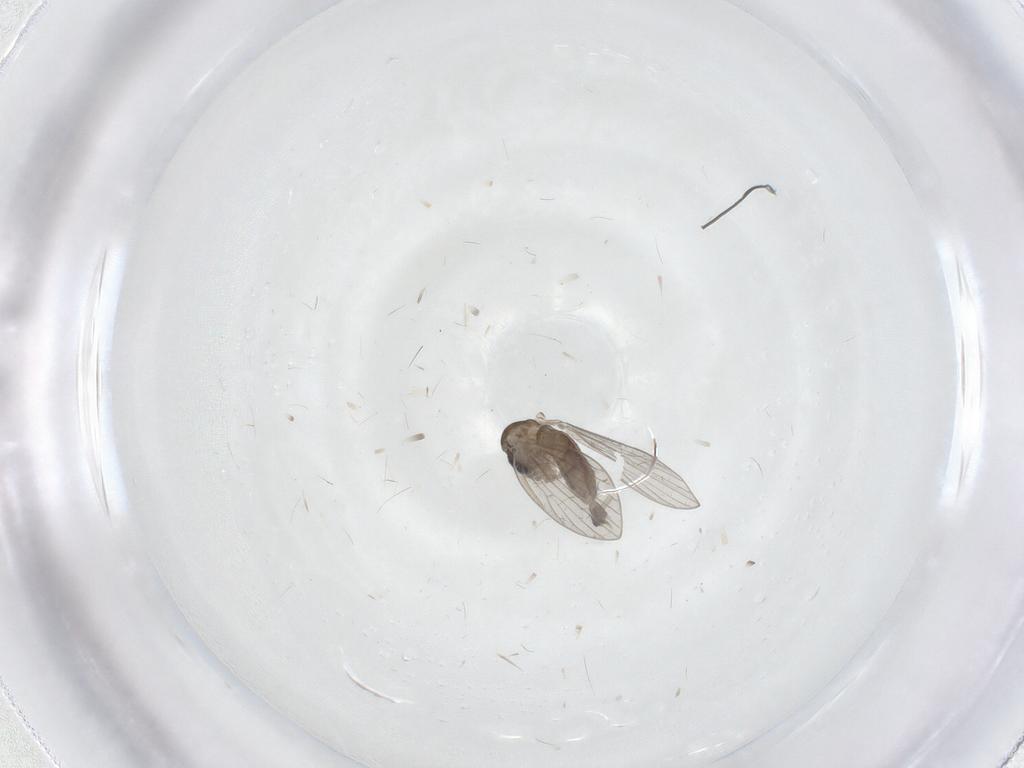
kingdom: Animalia
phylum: Arthropoda
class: Insecta
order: Diptera
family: Psychodidae
